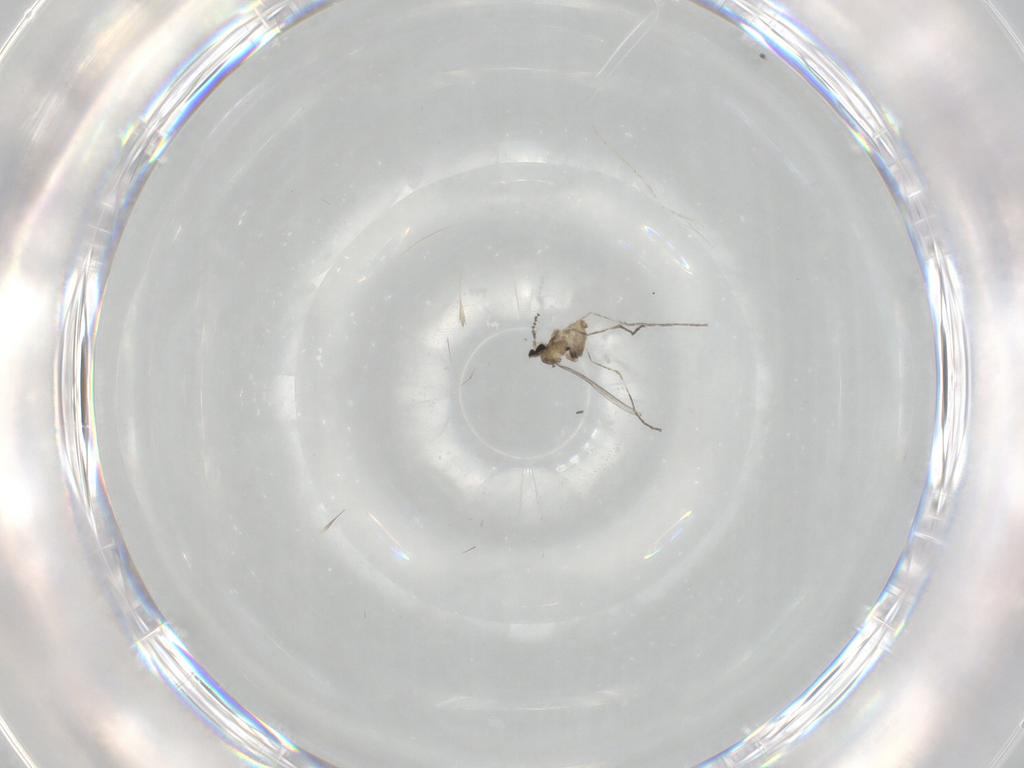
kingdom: Animalia
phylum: Arthropoda
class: Insecta
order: Diptera
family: Cecidomyiidae
